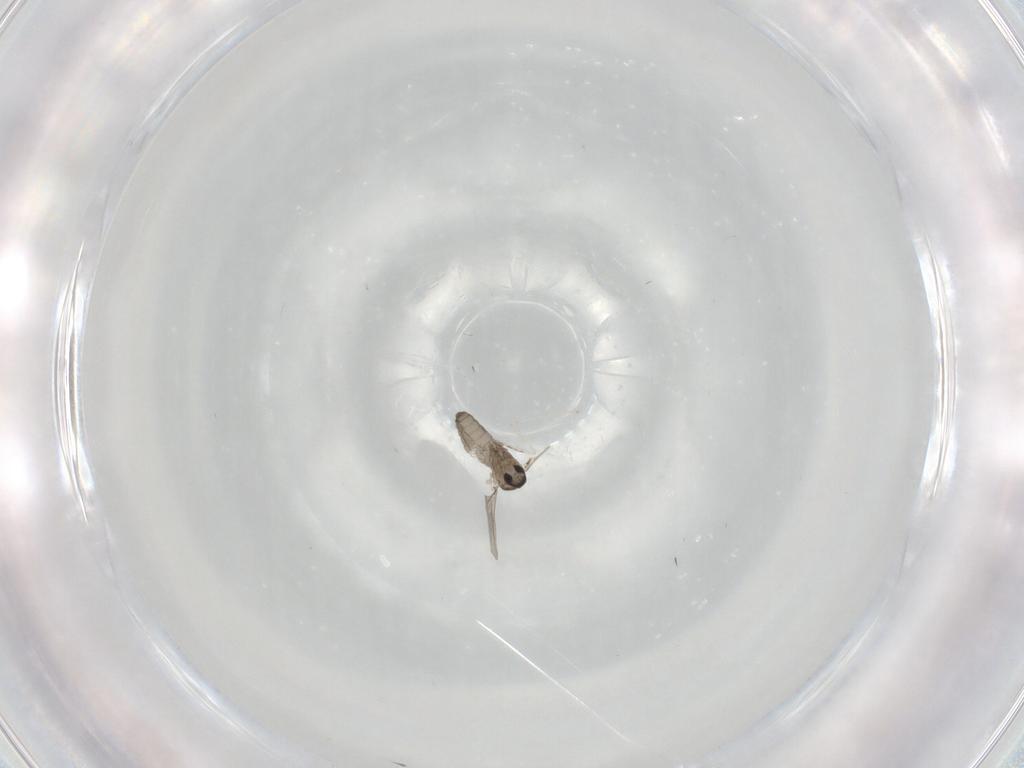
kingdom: Animalia
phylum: Arthropoda
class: Insecta
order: Diptera
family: Cecidomyiidae
